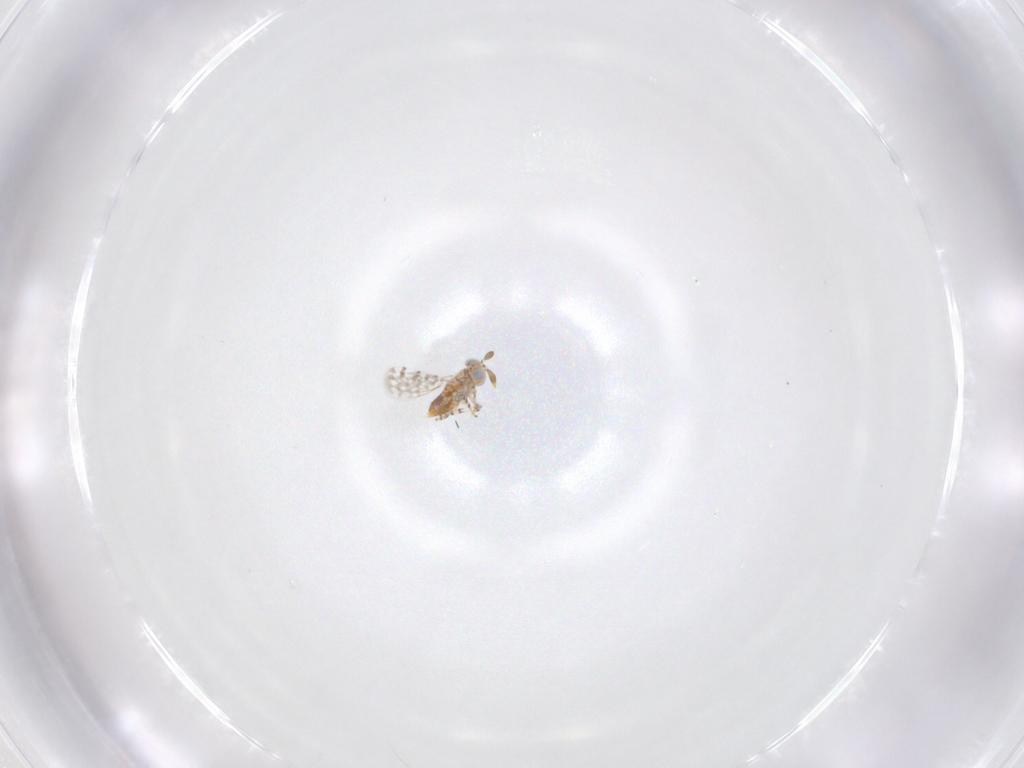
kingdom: Animalia
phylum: Arthropoda
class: Insecta
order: Hymenoptera
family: Aphelinidae
